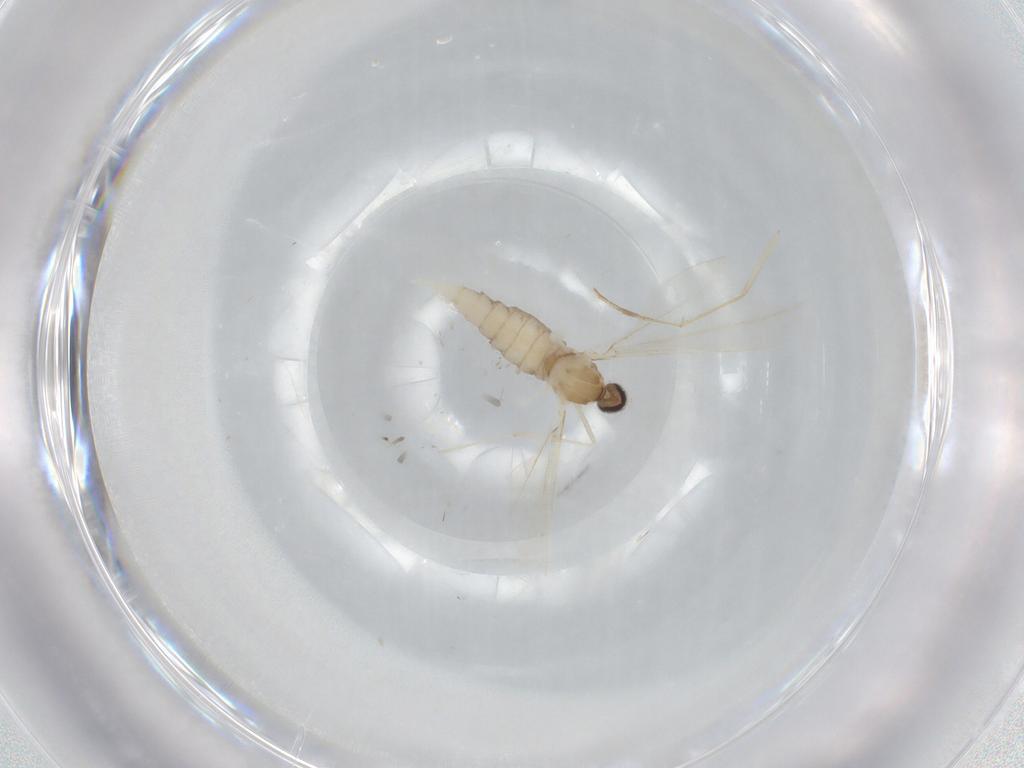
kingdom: Animalia
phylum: Arthropoda
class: Insecta
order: Diptera
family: Cecidomyiidae
